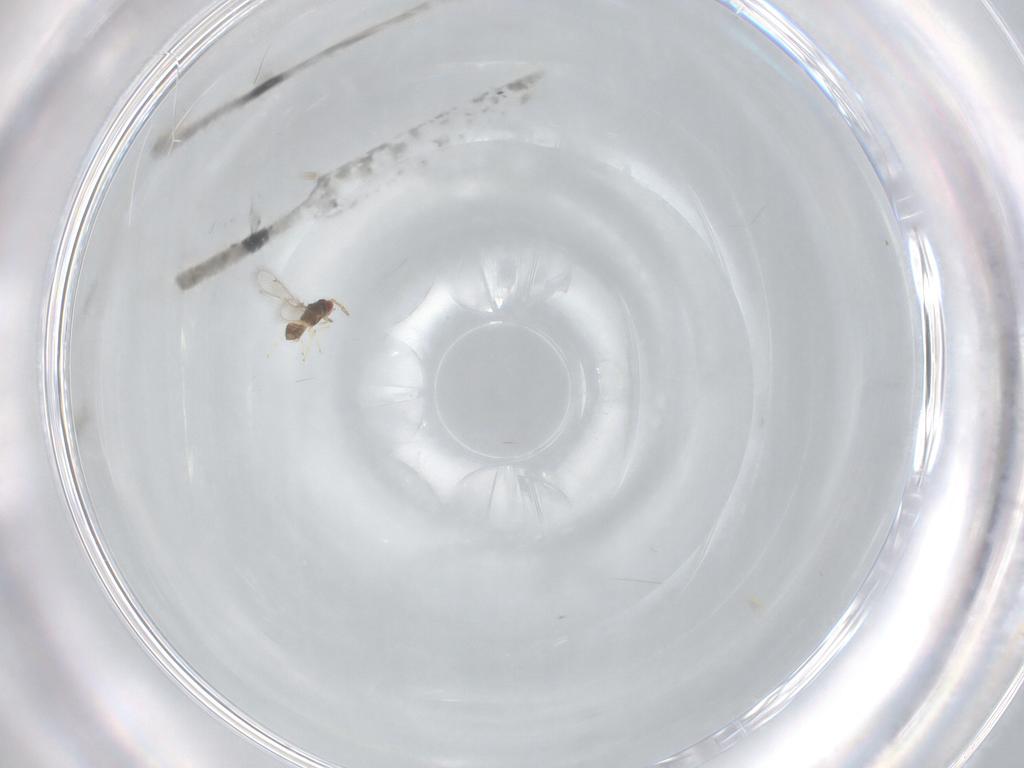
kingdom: Animalia
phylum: Arthropoda
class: Insecta
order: Hymenoptera
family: Eulophidae
